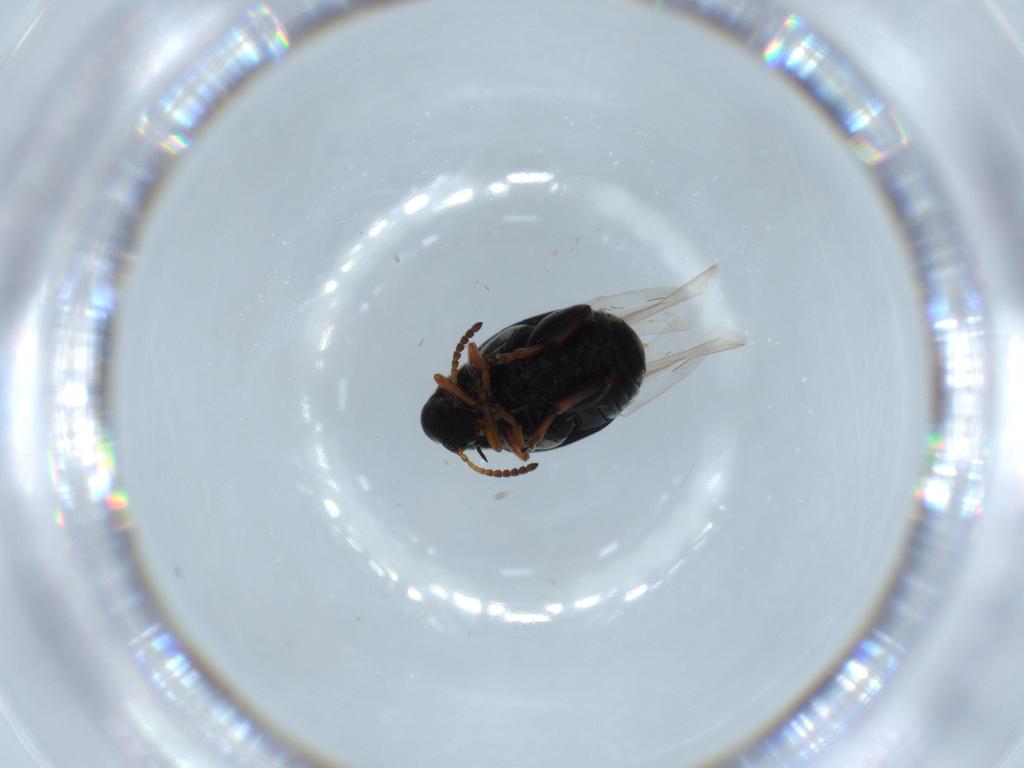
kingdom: Animalia
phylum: Arthropoda
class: Insecta
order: Coleoptera
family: Chrysomelidae
